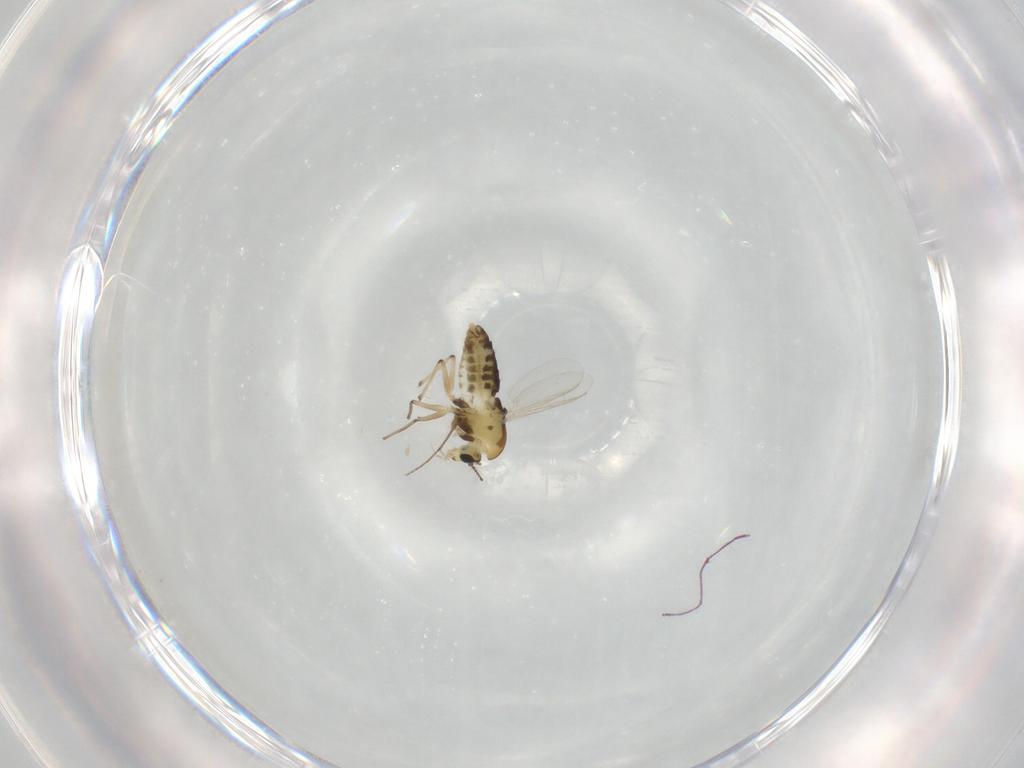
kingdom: Animalia
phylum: Arthropoda
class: Insecta
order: Diptera
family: Chironomidae
